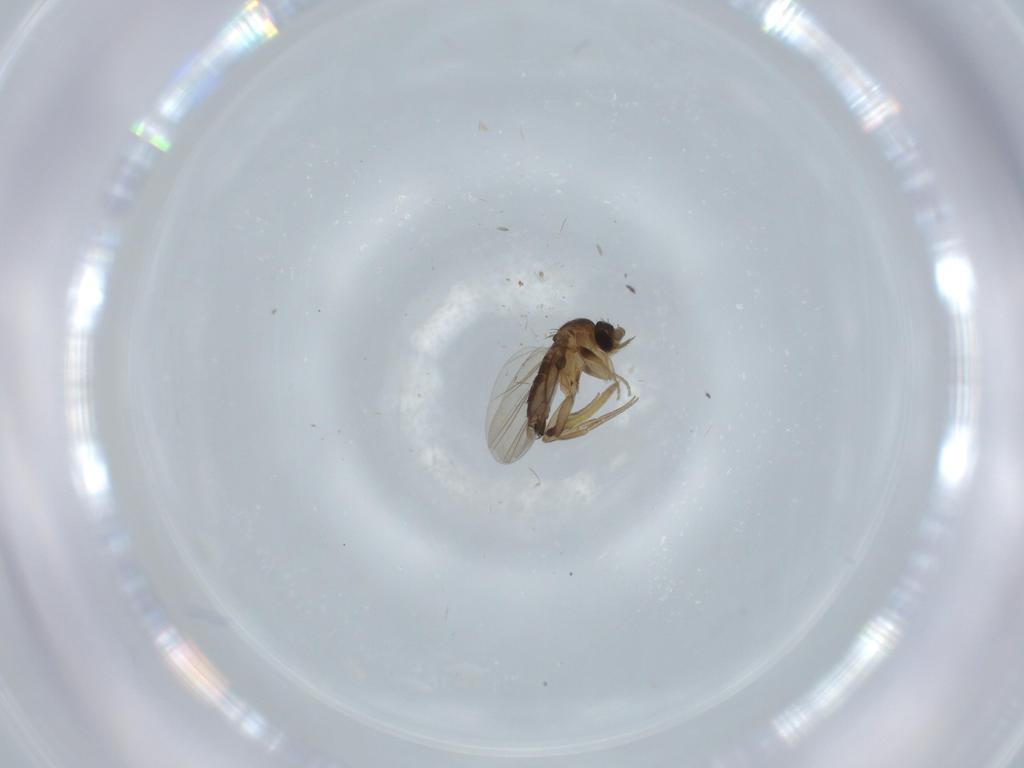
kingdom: Animalia
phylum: Arthropoda
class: Insecta
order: Diptera
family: Phoridae
